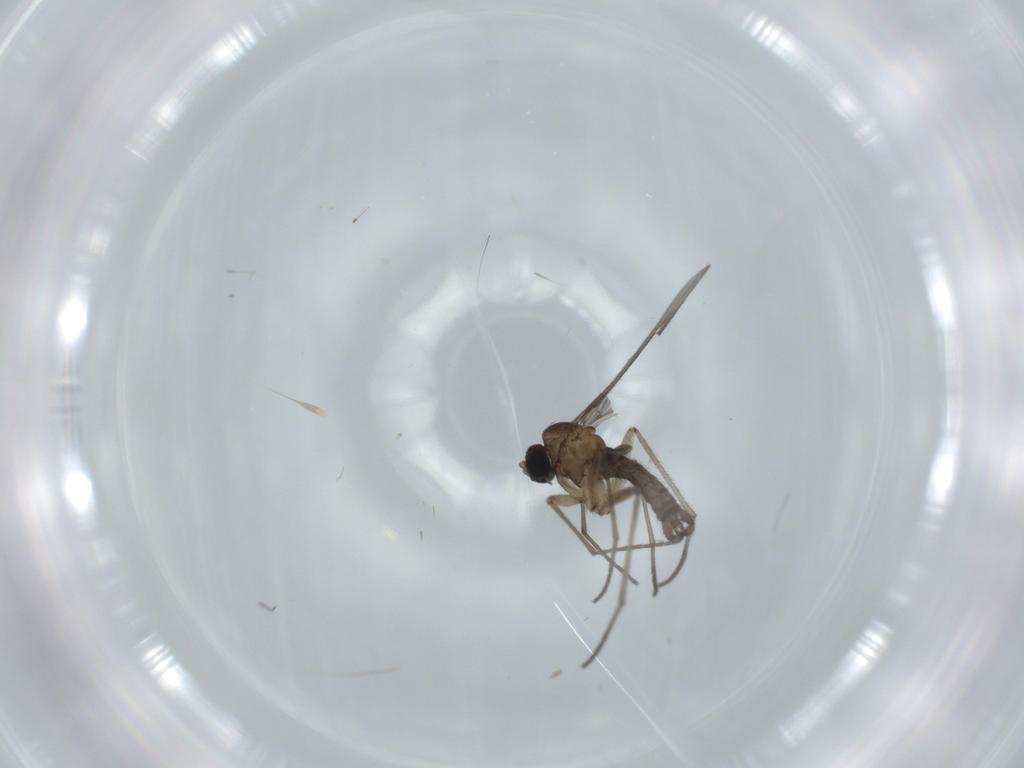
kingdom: Animalia
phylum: Arthropoda
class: Insecta
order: Diptera
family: Sciaridae
